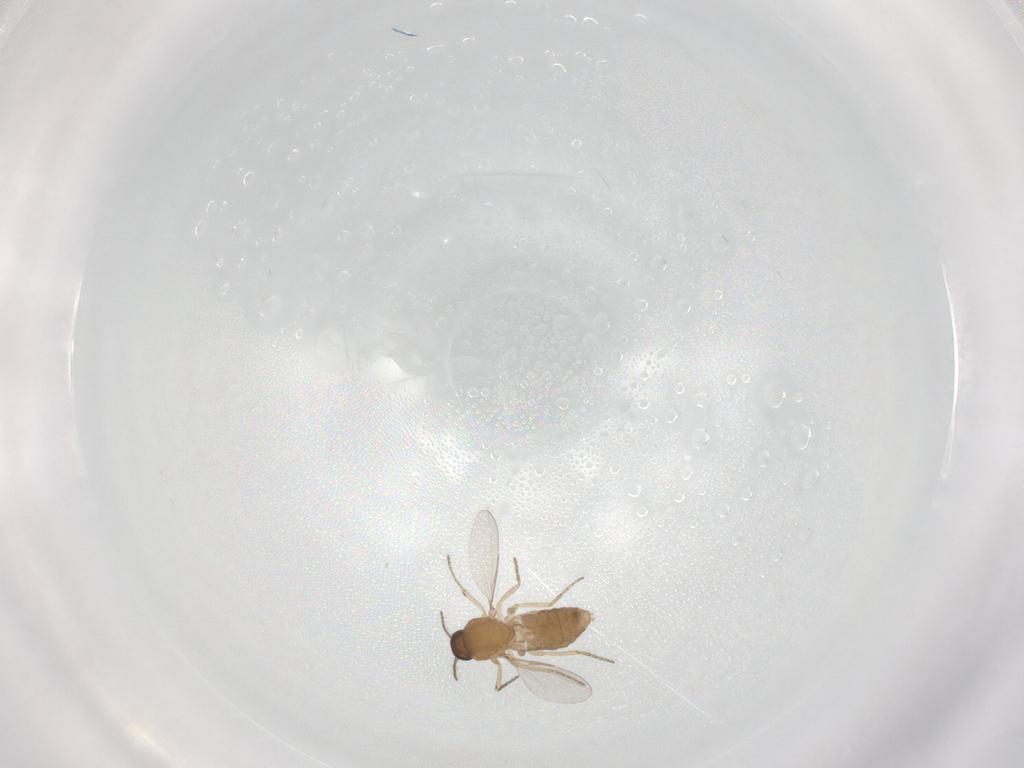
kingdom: Animalia
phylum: Arthropoda
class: Insecta
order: Diptera
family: Ceratopogonidae
